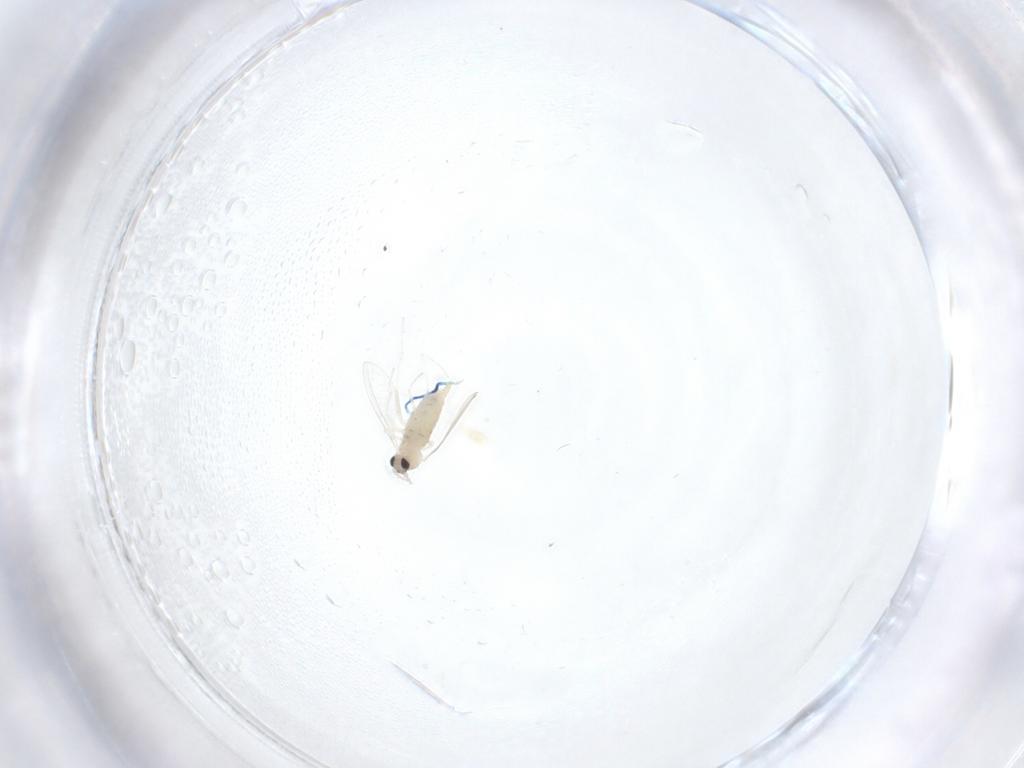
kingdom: Animalia
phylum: Arthropoda
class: Insecta
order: Diptera
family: Cecidomyiidae
